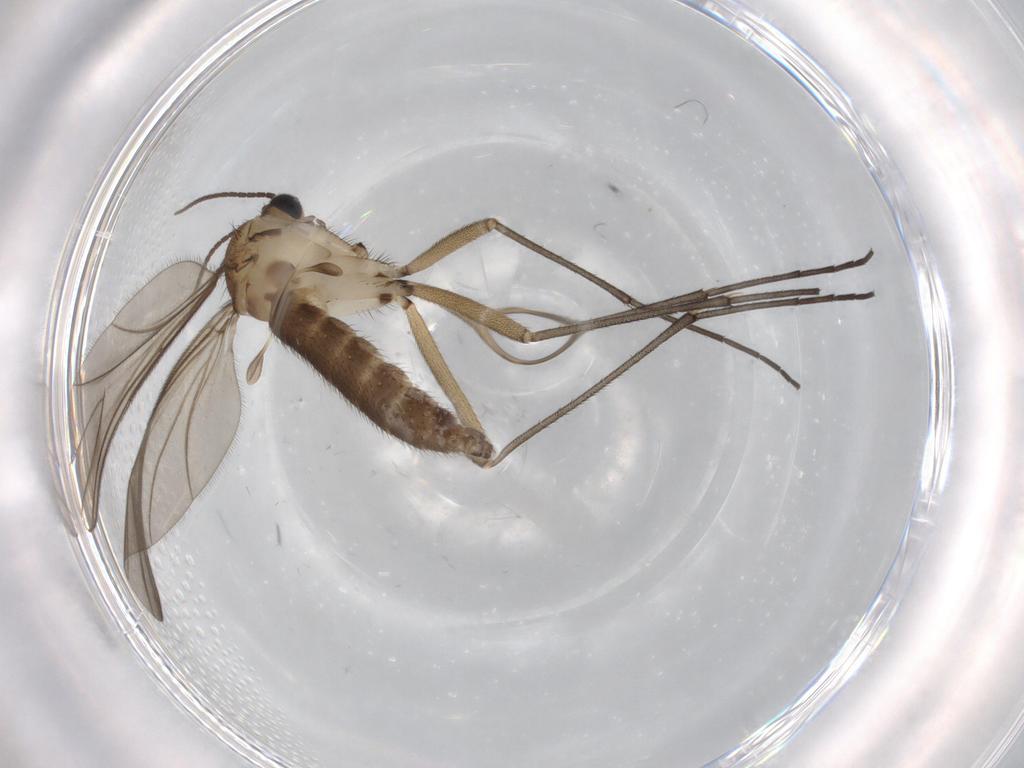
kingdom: Animalia
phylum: Arthropoda
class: Insecta
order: Diptera
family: Sciaridae
